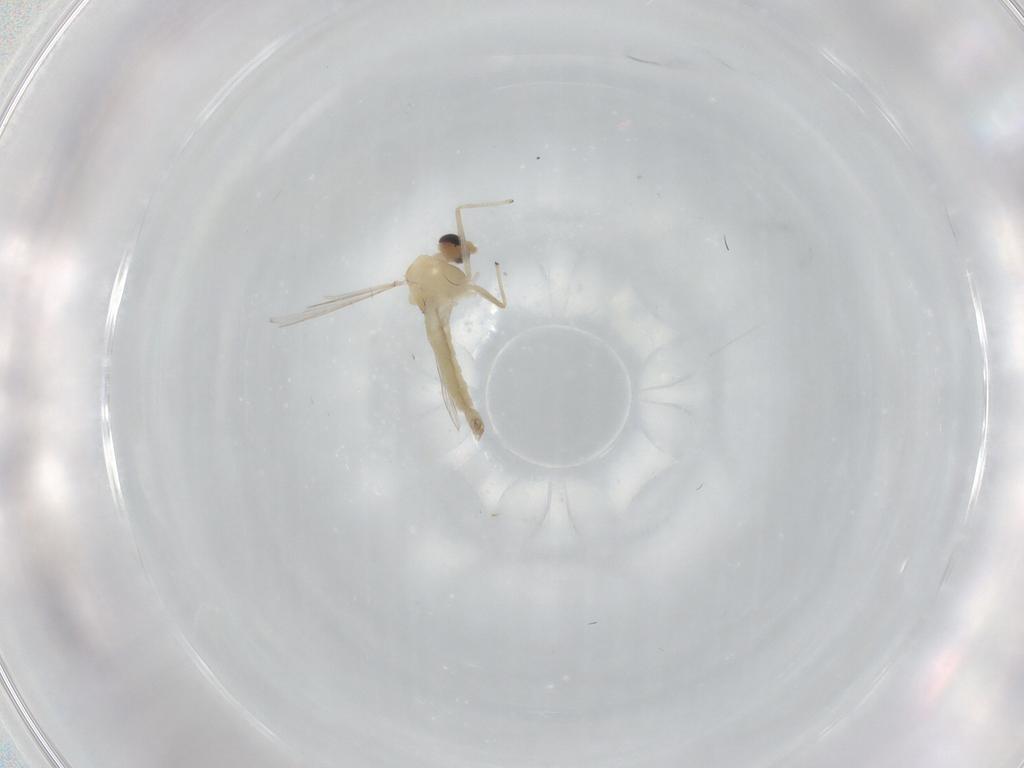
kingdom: Animalia
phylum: Arthropoda
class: Insecta
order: Diptera
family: Chironomidae
